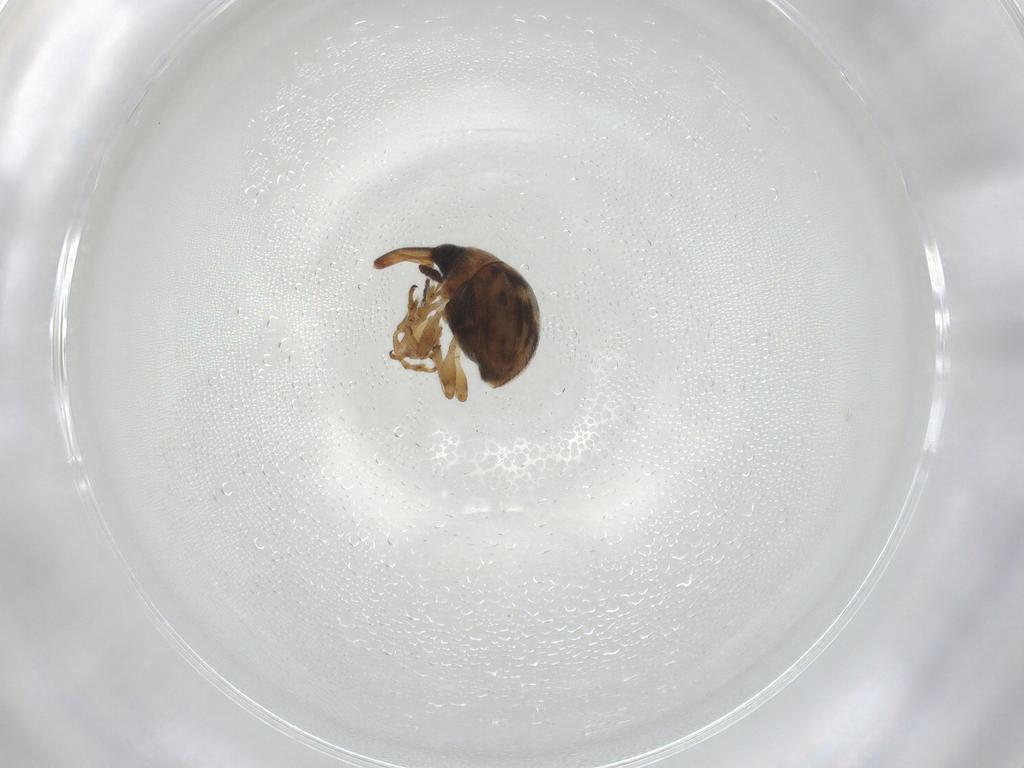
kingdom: Animalia
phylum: Arthropoda
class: Insecta
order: Coleoptera
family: Brentidae
